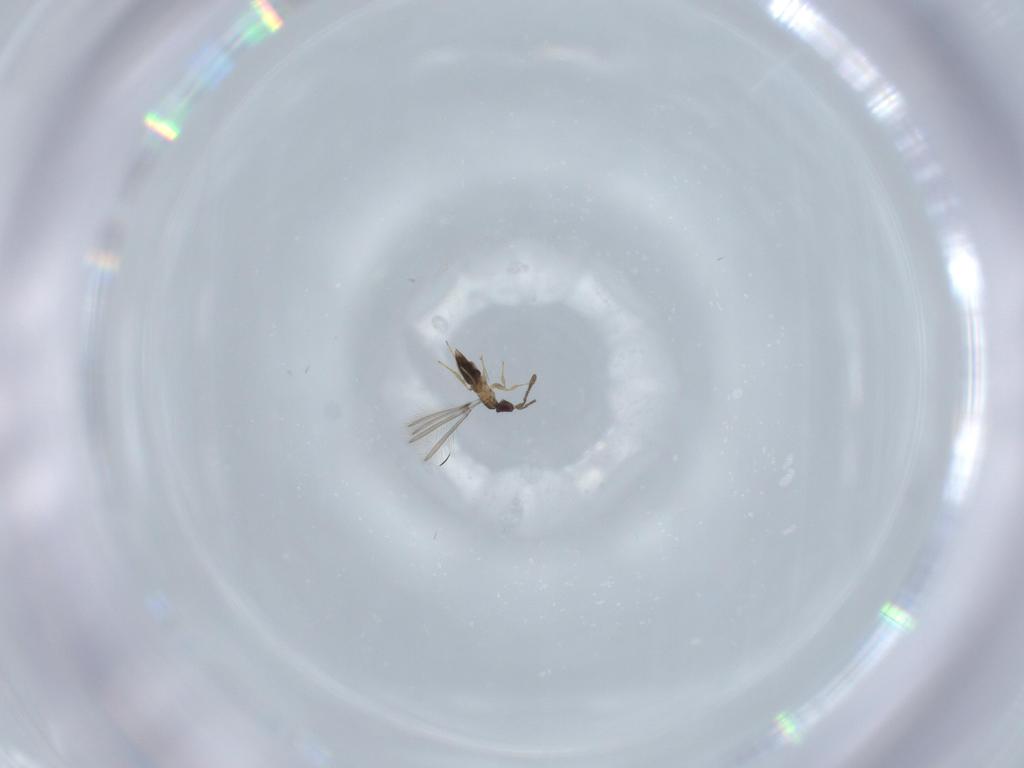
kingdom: Animalia
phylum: Arthropoda
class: Insecta
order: Hymenoptera
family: Mymaridae
